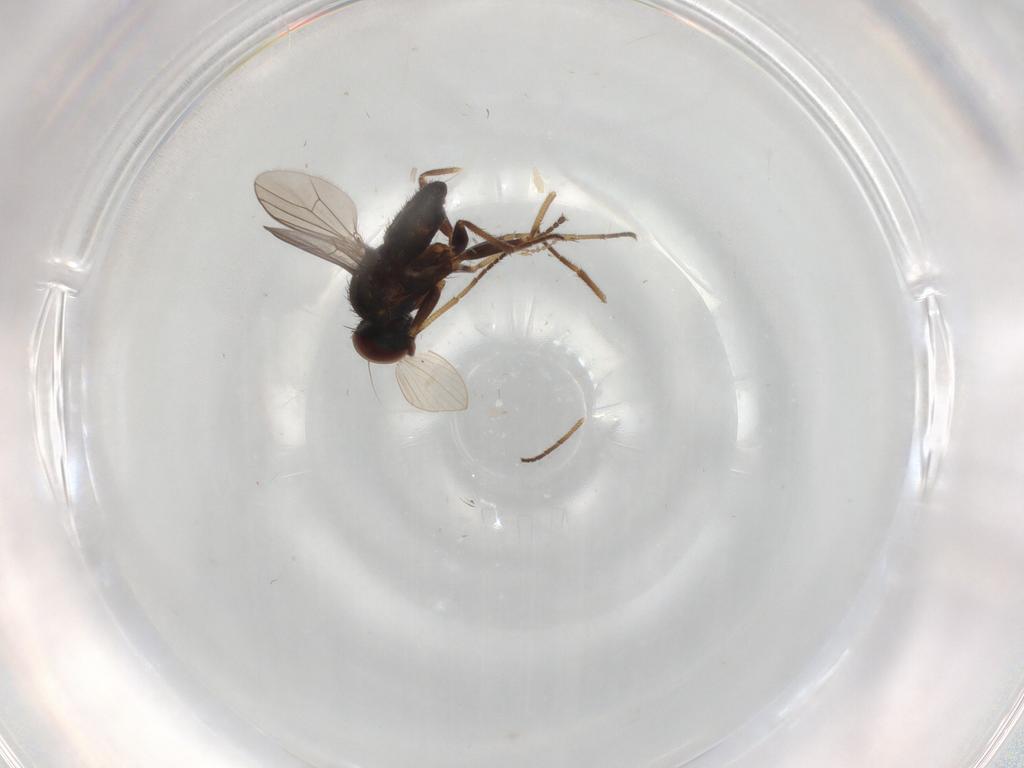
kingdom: Animalia
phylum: Arthropoda
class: Insecta
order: Diptera
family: Dolichopodidae
